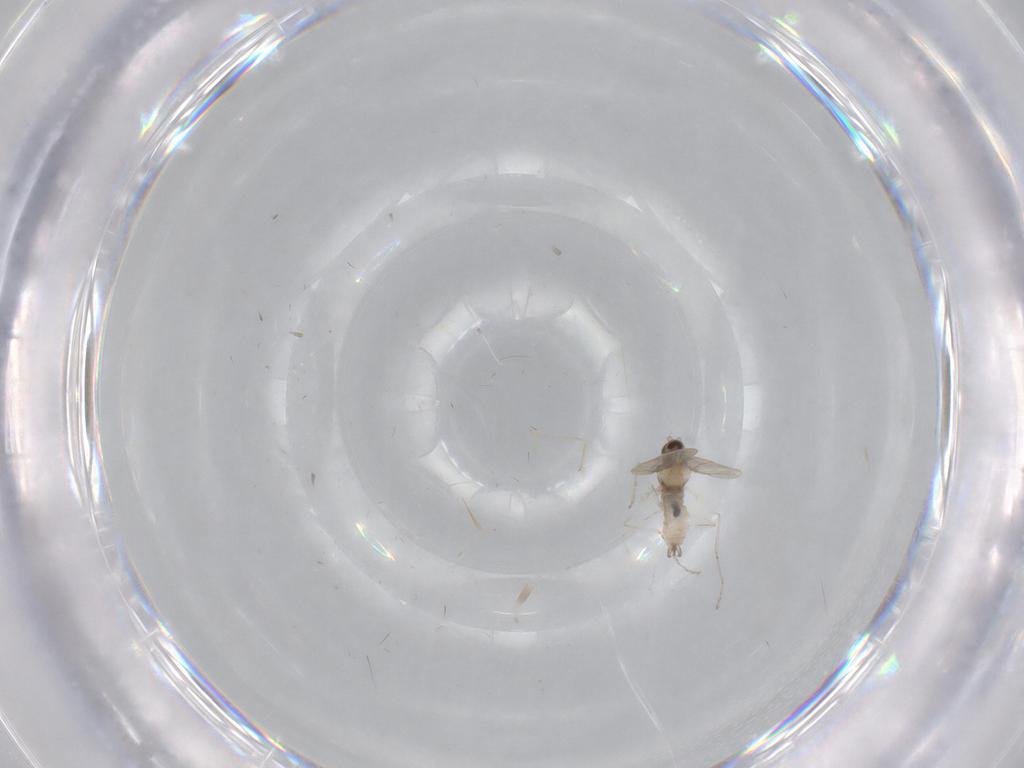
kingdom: Animalia
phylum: Arthropoda
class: Insecta
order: Diptera
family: Cecidomyiidae
